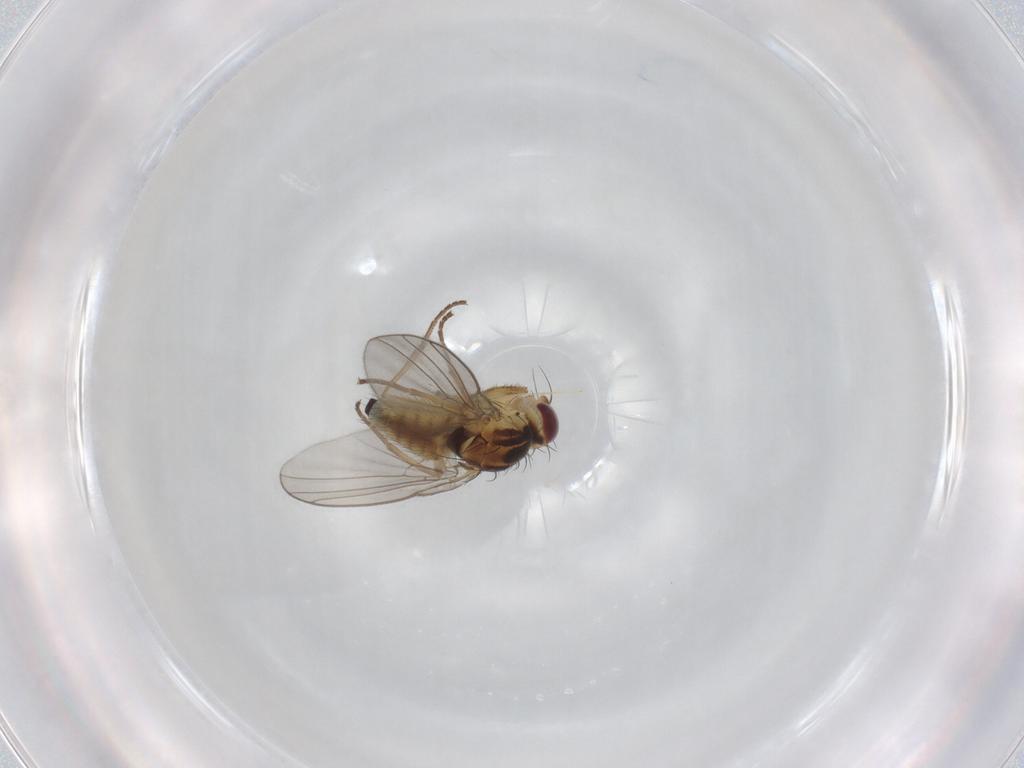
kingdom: Animalia
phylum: Arthropoda
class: Insecta
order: Diptera
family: Agromyzidae
